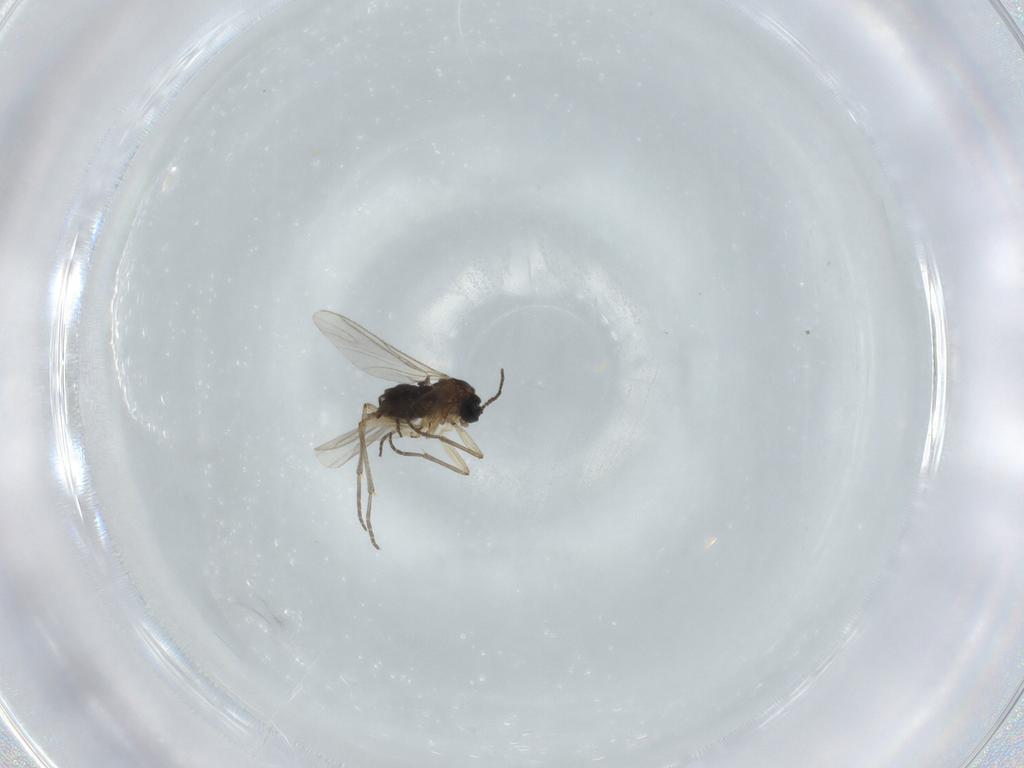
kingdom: Animalia
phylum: Arthropoda
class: Insecta
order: Diptera
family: Sciaridae
